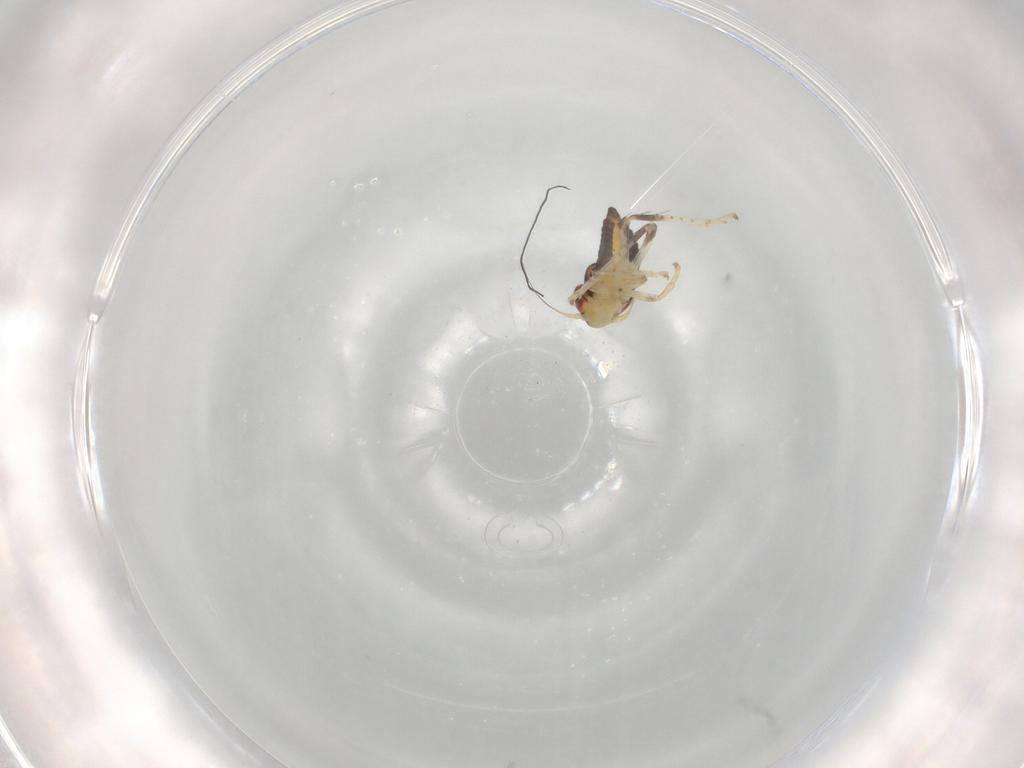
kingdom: Animalia
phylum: Arthropoda
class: Insecta
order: Hemiptera
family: Cicadellidae
